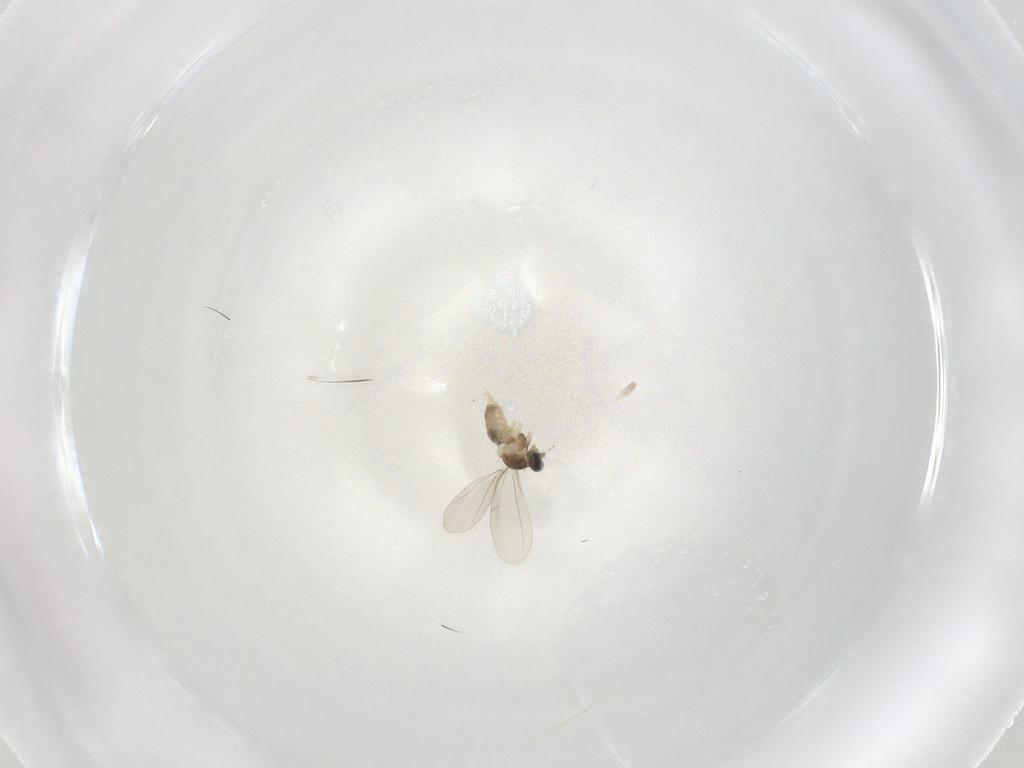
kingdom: Animalia
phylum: Arthropoda
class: Insecta
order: Diptera
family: Cecidomyiidae
